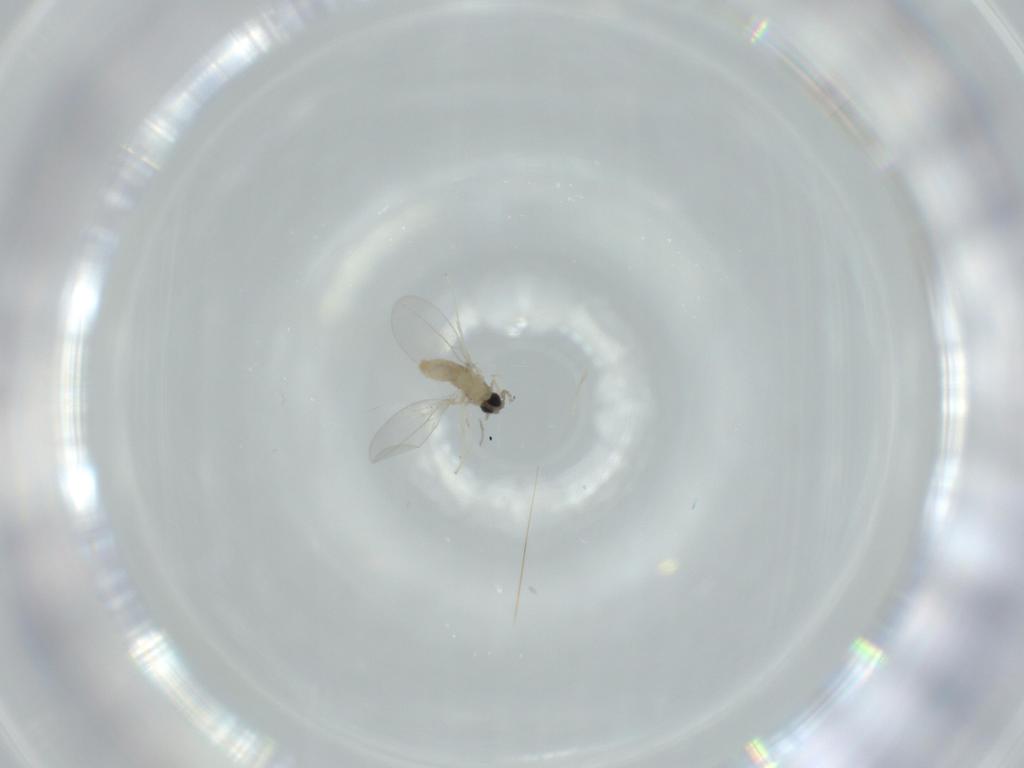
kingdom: Animalia
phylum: Arthropoda
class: Insecta
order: Diptera
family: Cecidomyiidae
